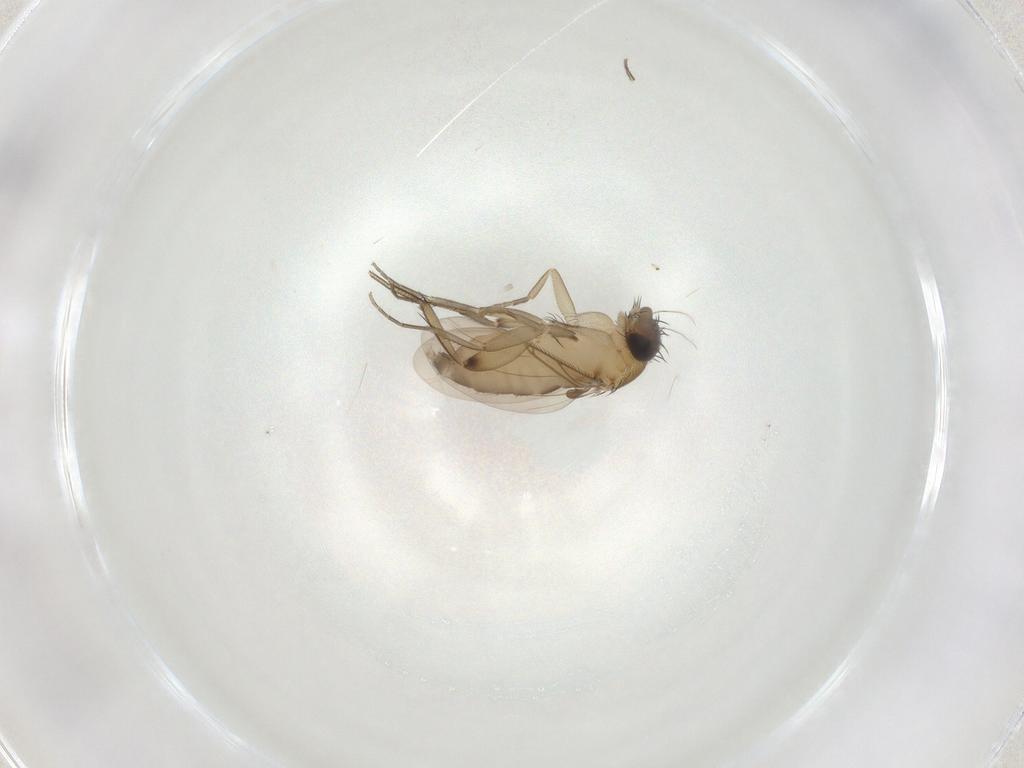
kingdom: Animalia
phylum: Arthropoda
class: Insecta
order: Diptera
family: Phoridae
